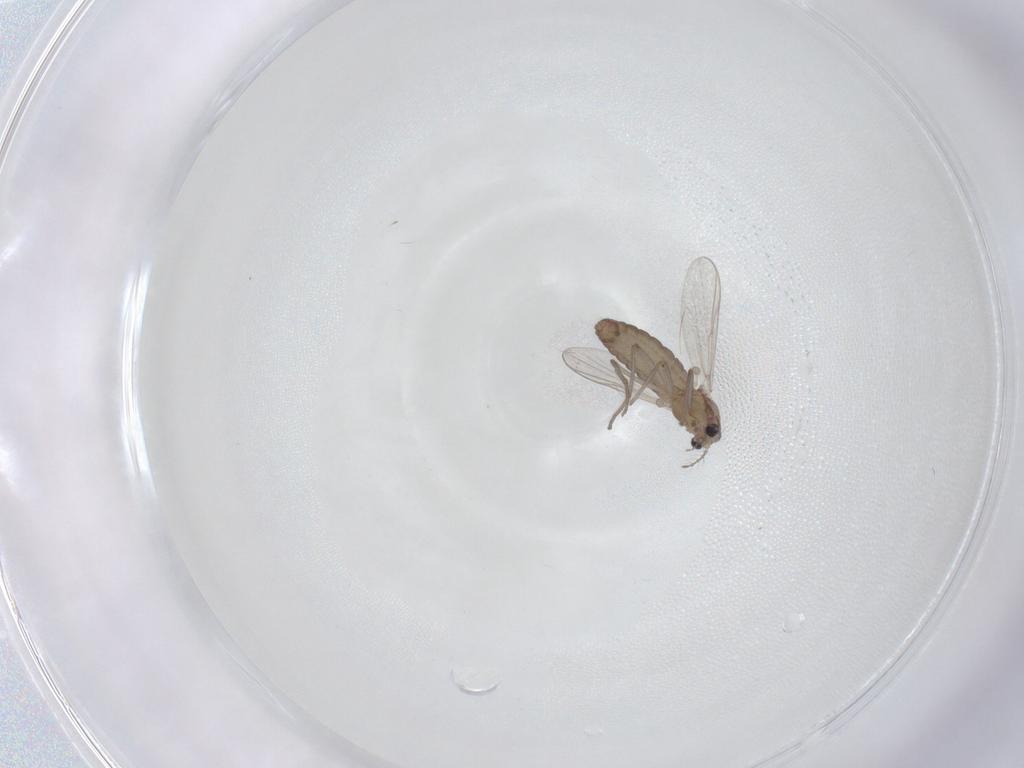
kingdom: Animalia
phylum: Arthropoda
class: Insecta
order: Diptera
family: Chironomidae
